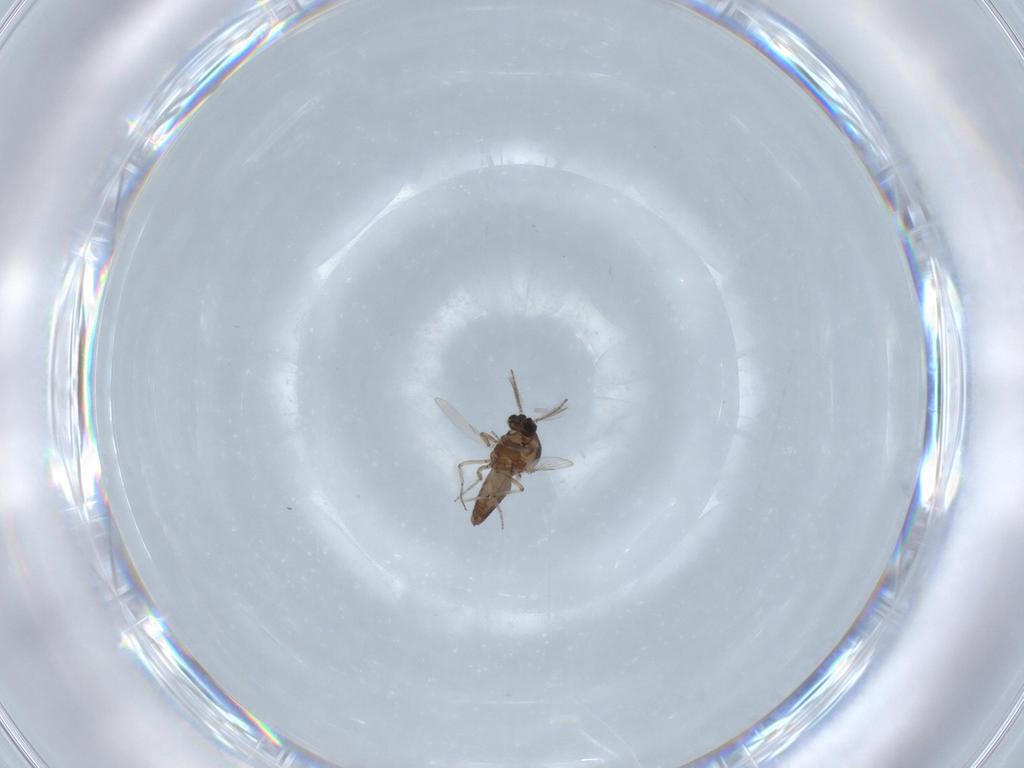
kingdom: Animalia
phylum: Arthropoda
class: Insecta
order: Diptera
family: Ceratopogonidae
